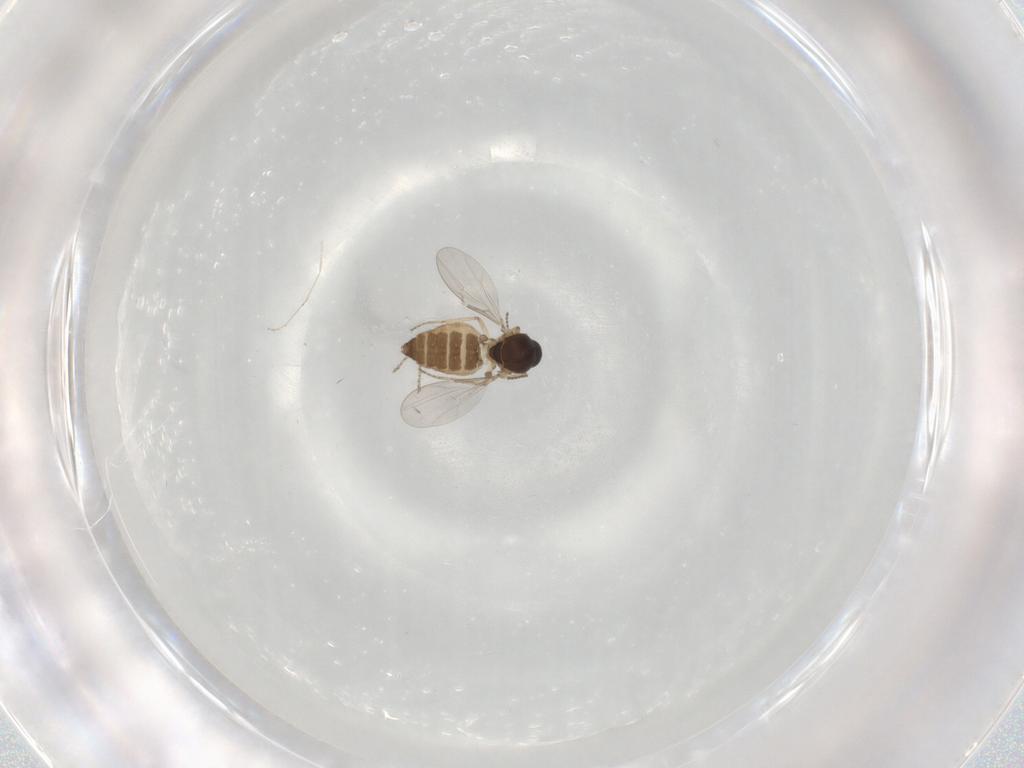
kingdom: Animalia
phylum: Arthropoda
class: Insecta
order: Diptera
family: Ceratopogonidae
